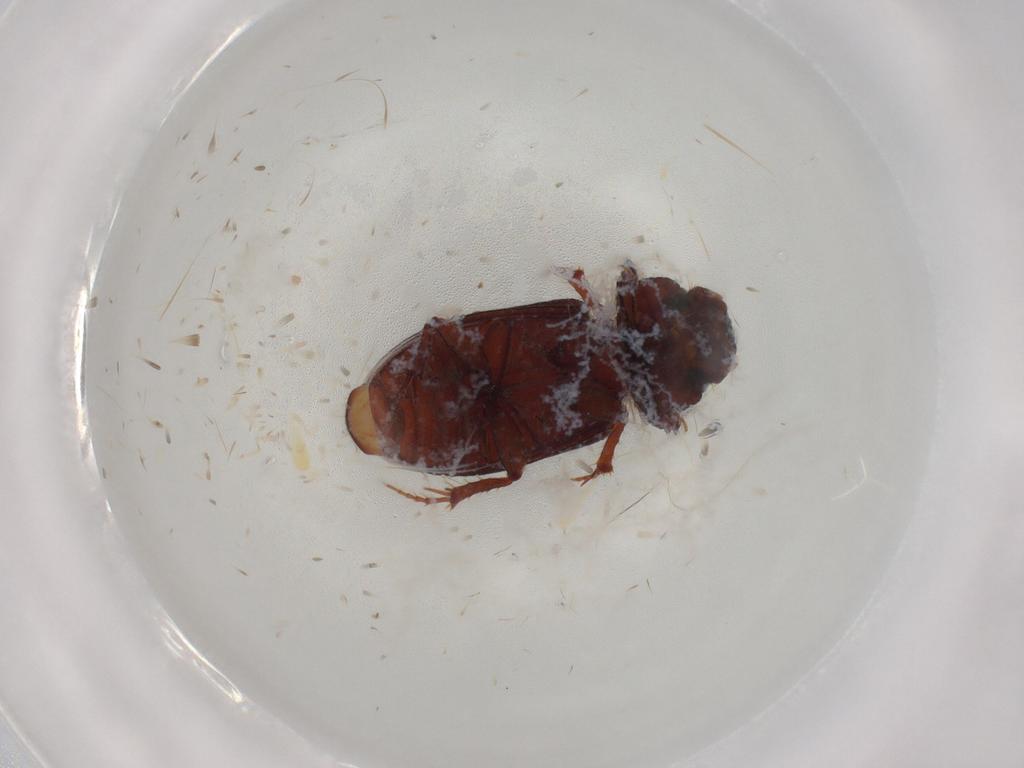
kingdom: Animalia
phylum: Arthropoda
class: Insecta
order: Coleoptera
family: Hydrophilidae
